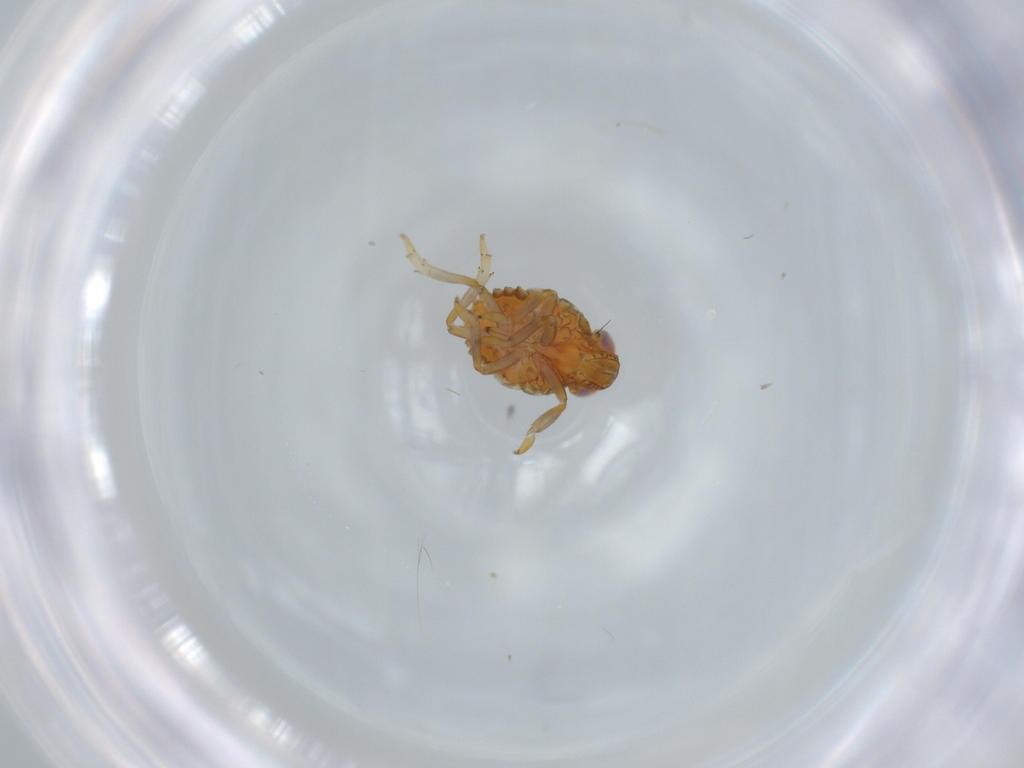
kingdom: Animalia
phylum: Arthropoda
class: Insecta
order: Hemiptera
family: Issidae
